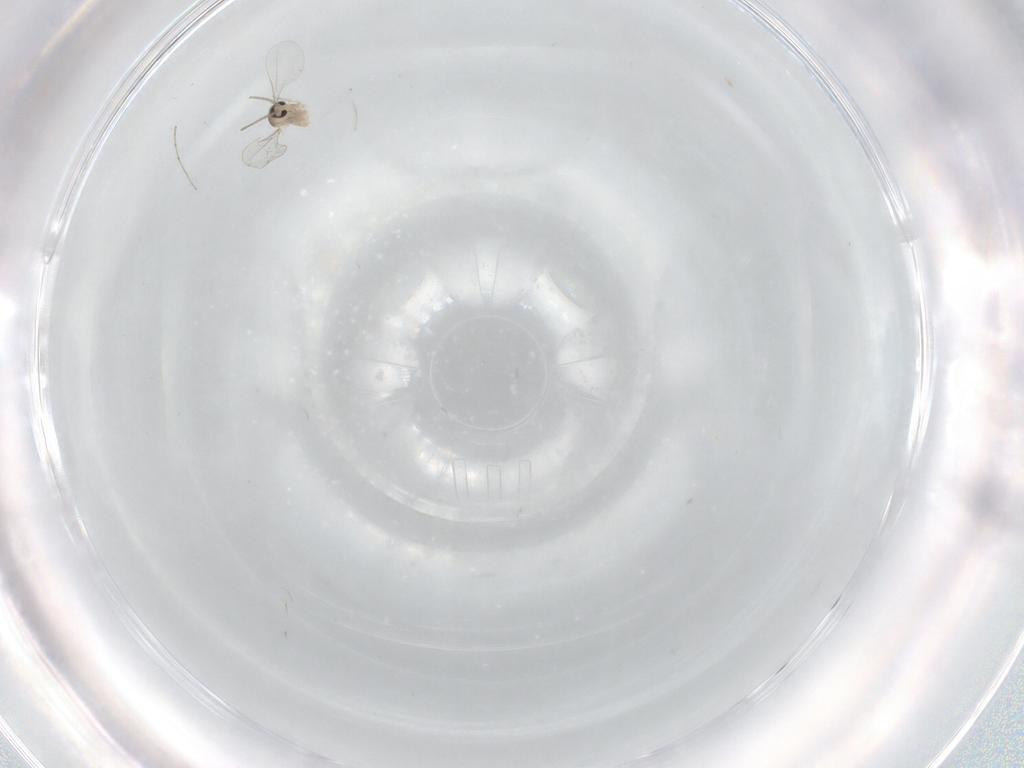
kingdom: Animalia
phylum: Arthropoda
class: Insecta
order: Diptera
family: Cecidomyiidae
